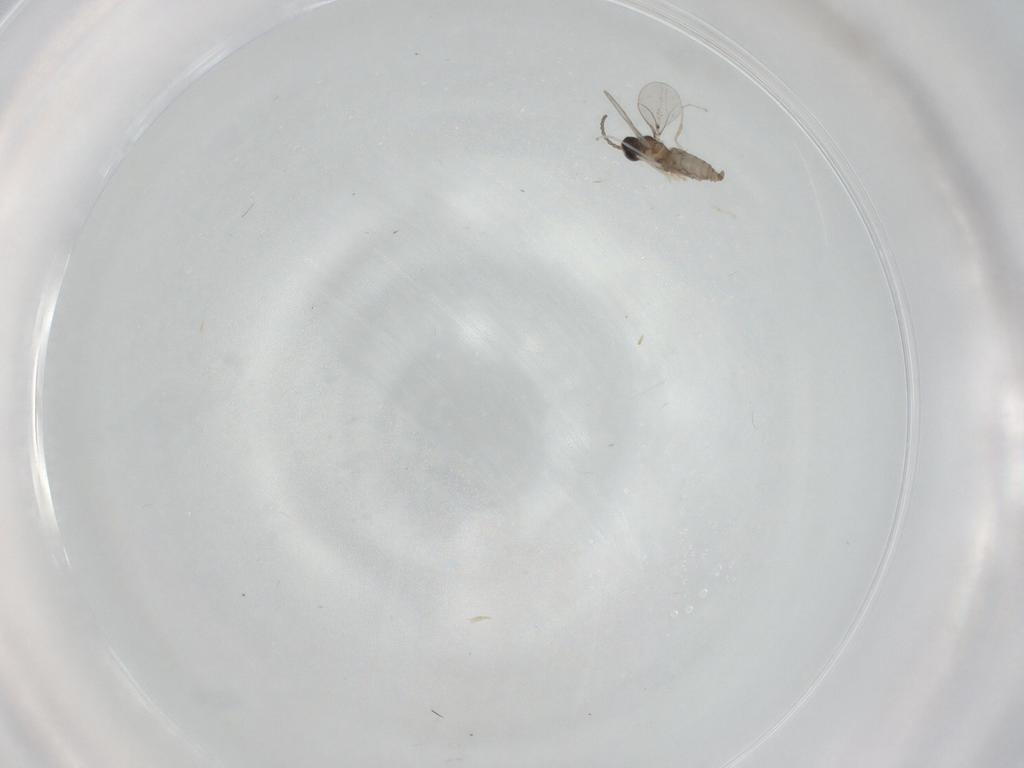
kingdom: Animalia
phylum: Arthropoda
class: Insecta
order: Diptera
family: Cecidomyiidae
